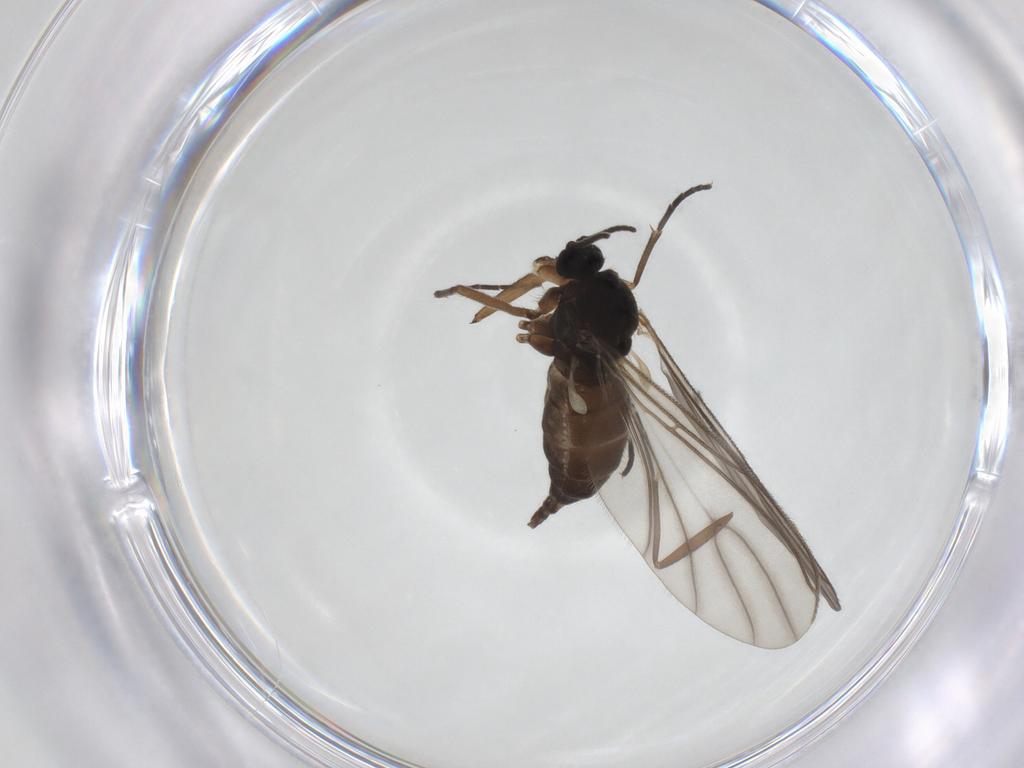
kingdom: Animalia
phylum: Arthropoda
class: Insecta
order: Diptera
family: Sciaridae
